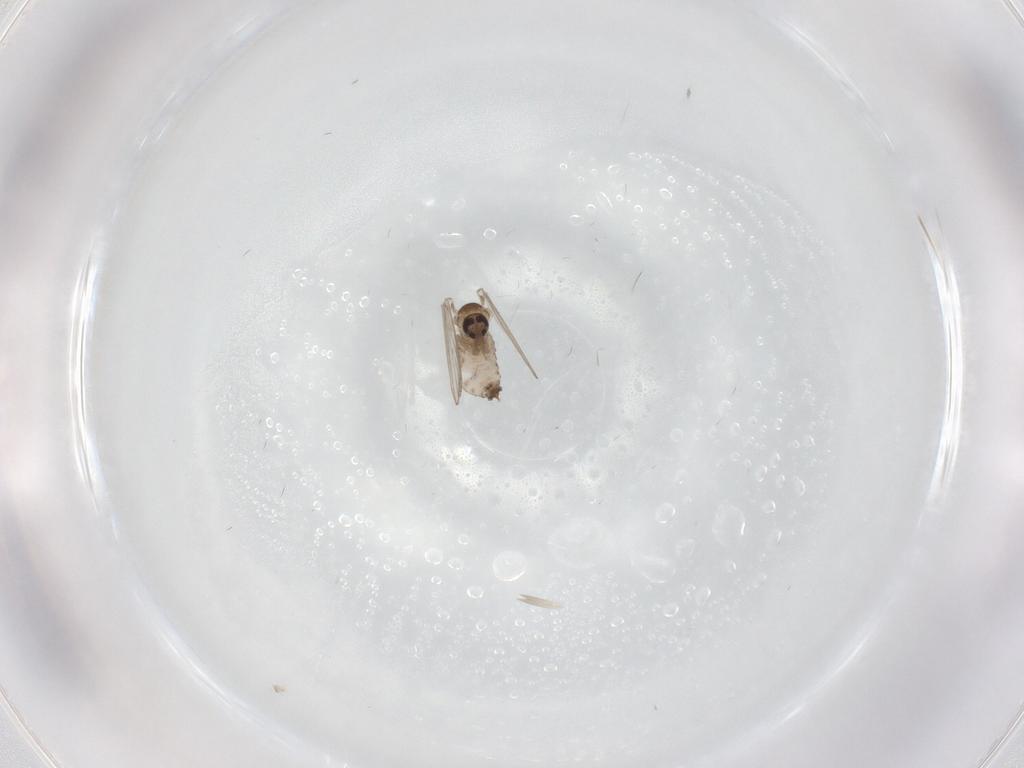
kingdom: Animalia
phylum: Arthropoda
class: Insecta
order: Diptera
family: Psychodidae
